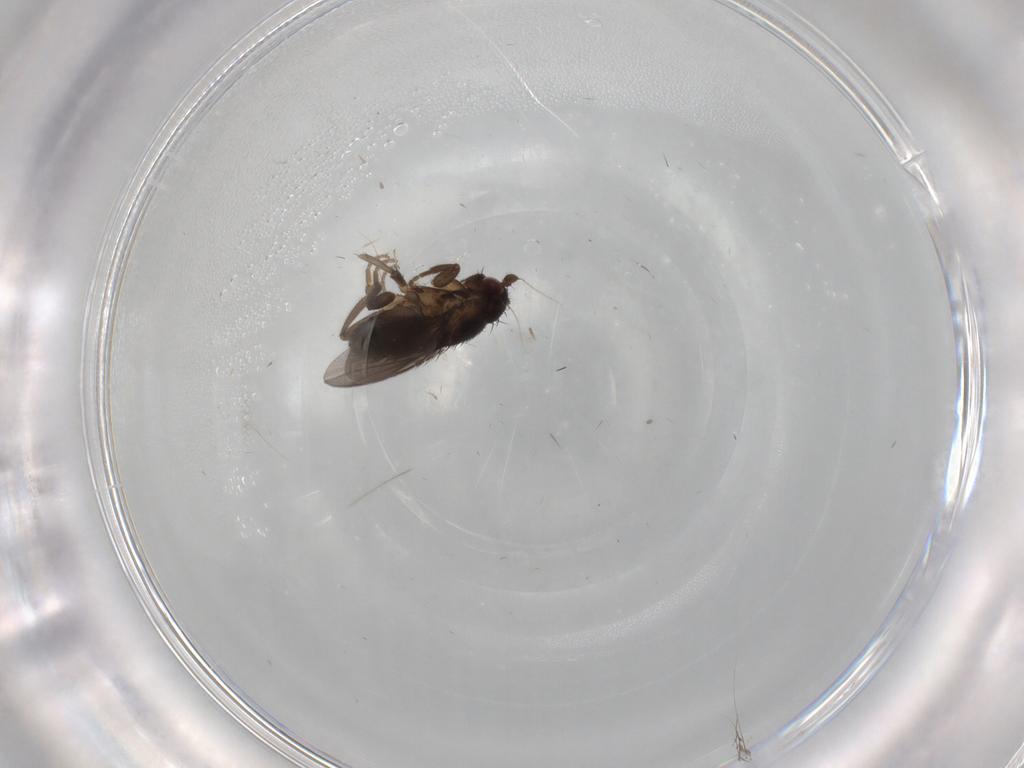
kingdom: Animalia
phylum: Arthropoda
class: Insecta
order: Diptera
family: Sphaeroceridae
